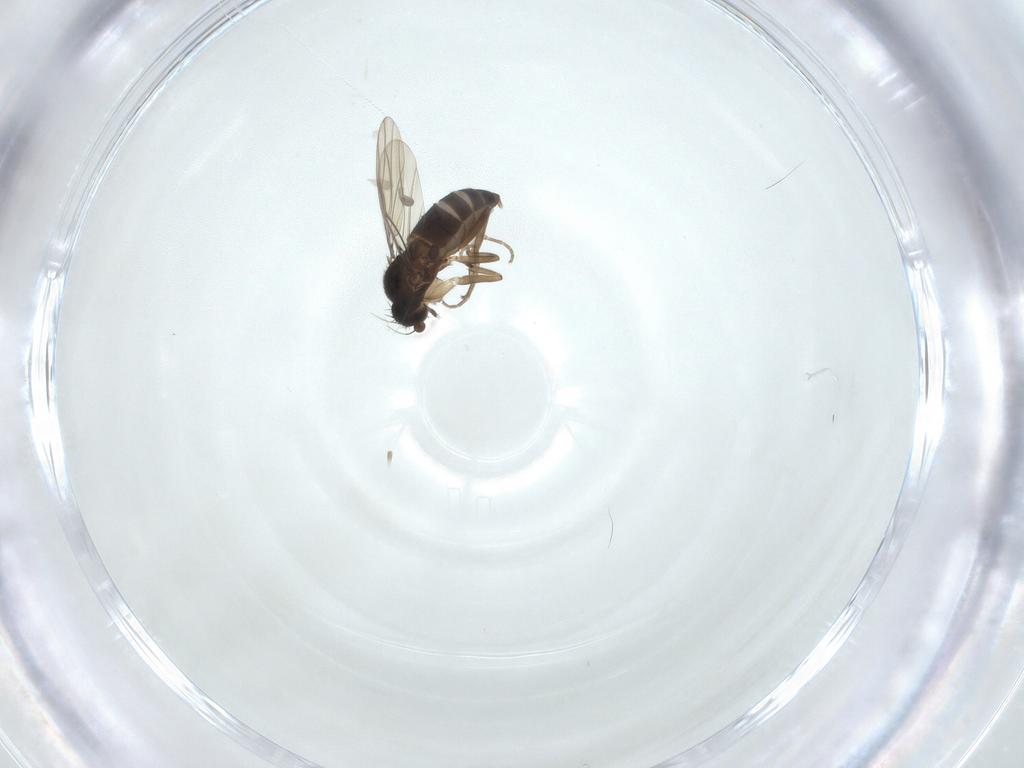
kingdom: Animalia
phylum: Arthropoda
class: Insecta
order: Diptera
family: Phoridae
